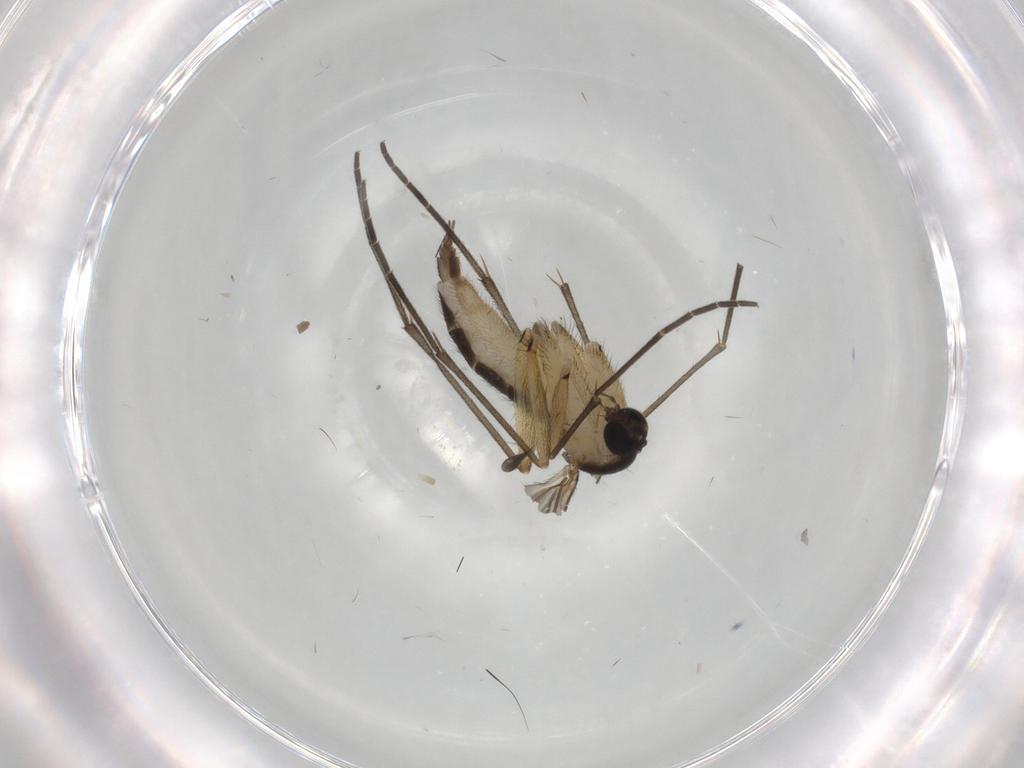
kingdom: Animalia
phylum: Arthropoda
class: Insecta
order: Diptera
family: Sciaridae
